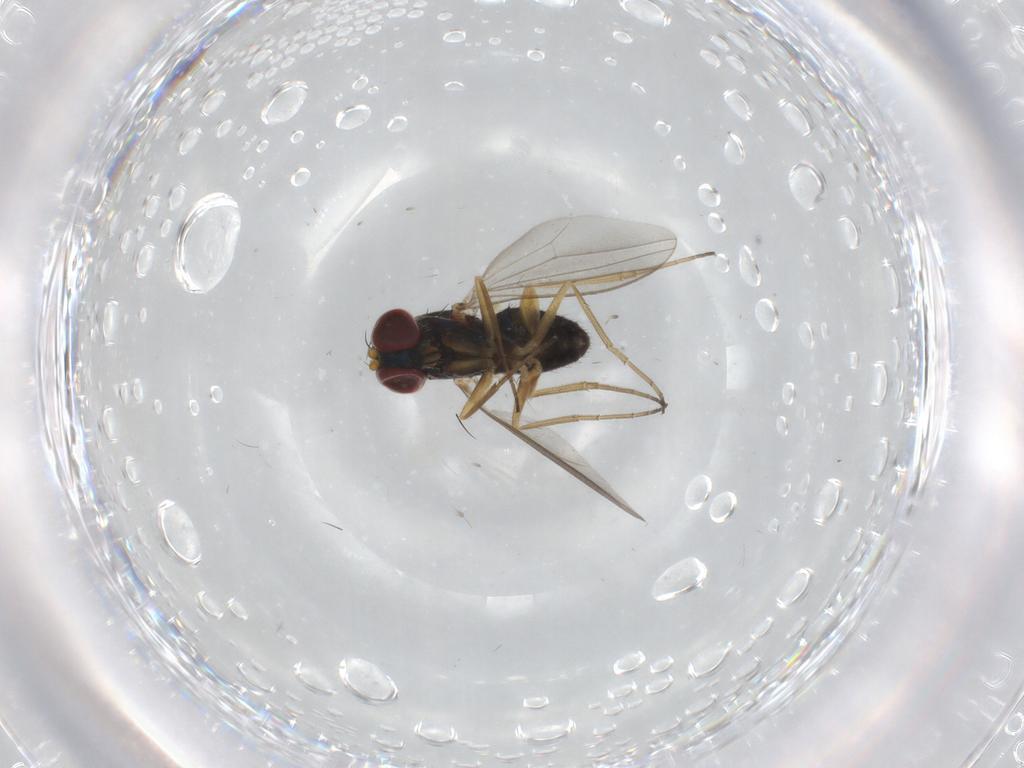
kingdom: Animalia
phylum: Arthropoda
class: Insecta
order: Diptera
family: Dolichopodidae
